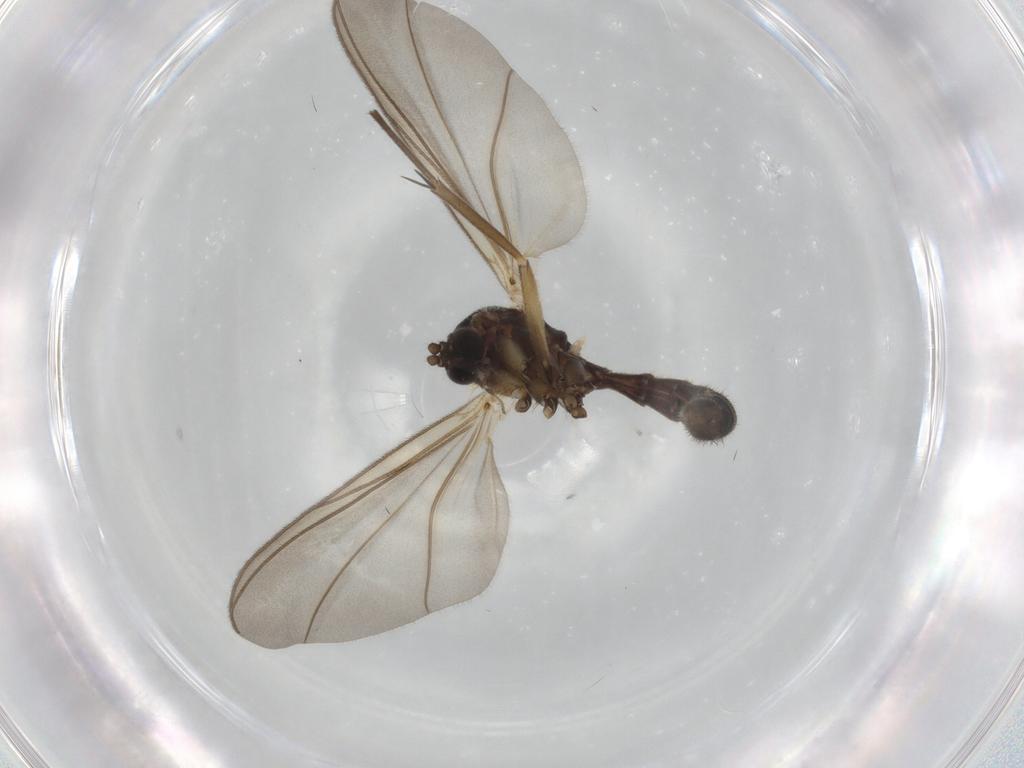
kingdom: Animalia
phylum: Arthropoda
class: Insecta
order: Diptera
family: Mycetophilidae
